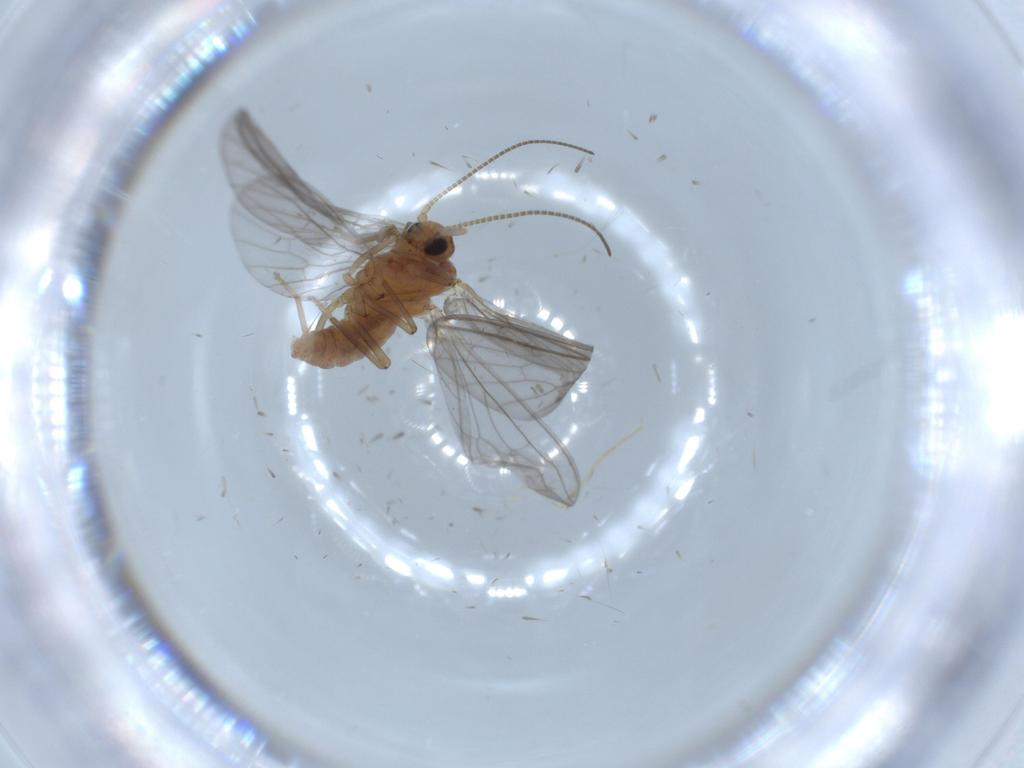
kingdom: Animalia
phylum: Arthropoda
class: Insecta
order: Neuroptera
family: Coniopterygidae
